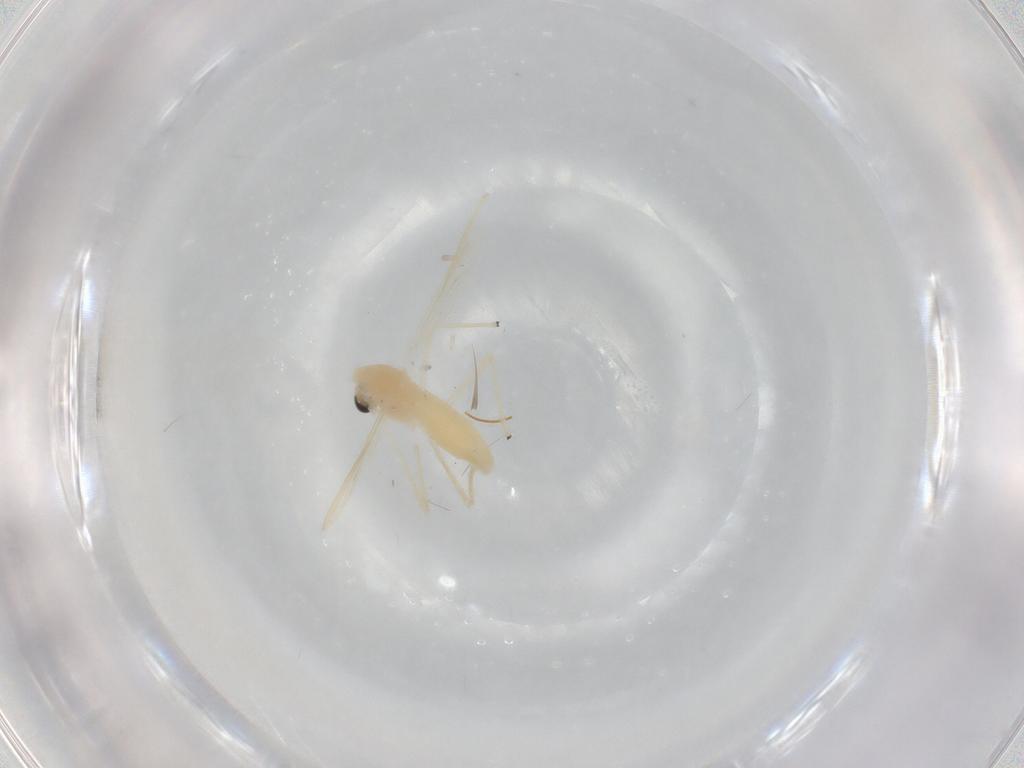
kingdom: Animalia
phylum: Arthropoda
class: Insecta
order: Diptera
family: Chironomidae
